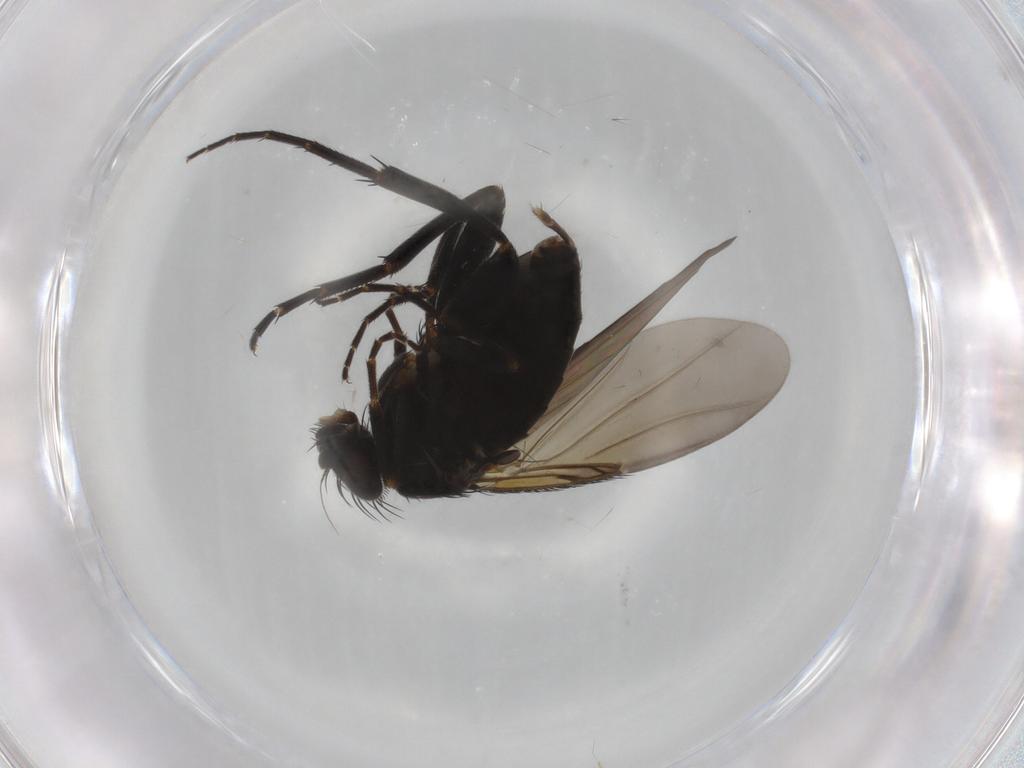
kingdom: Animalia
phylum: Arthropoda
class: Insecta
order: Diptera
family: Phoridae
